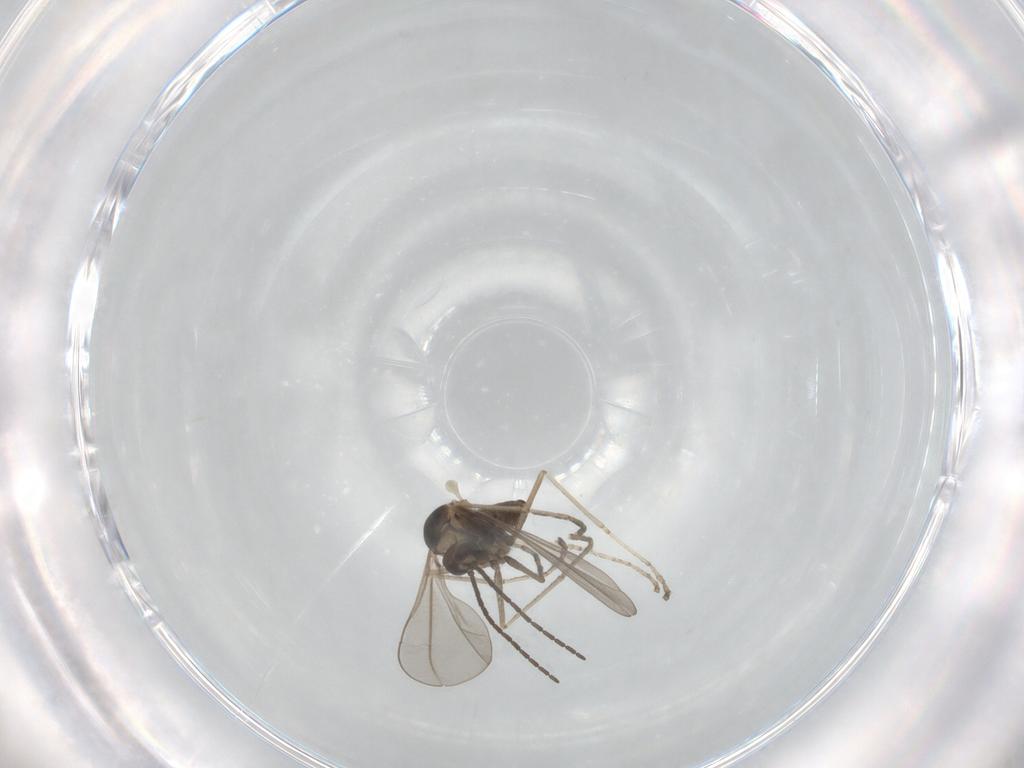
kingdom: Animalia
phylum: Arthropoda
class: Insecta
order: Diptera
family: Cecidomyiidae
